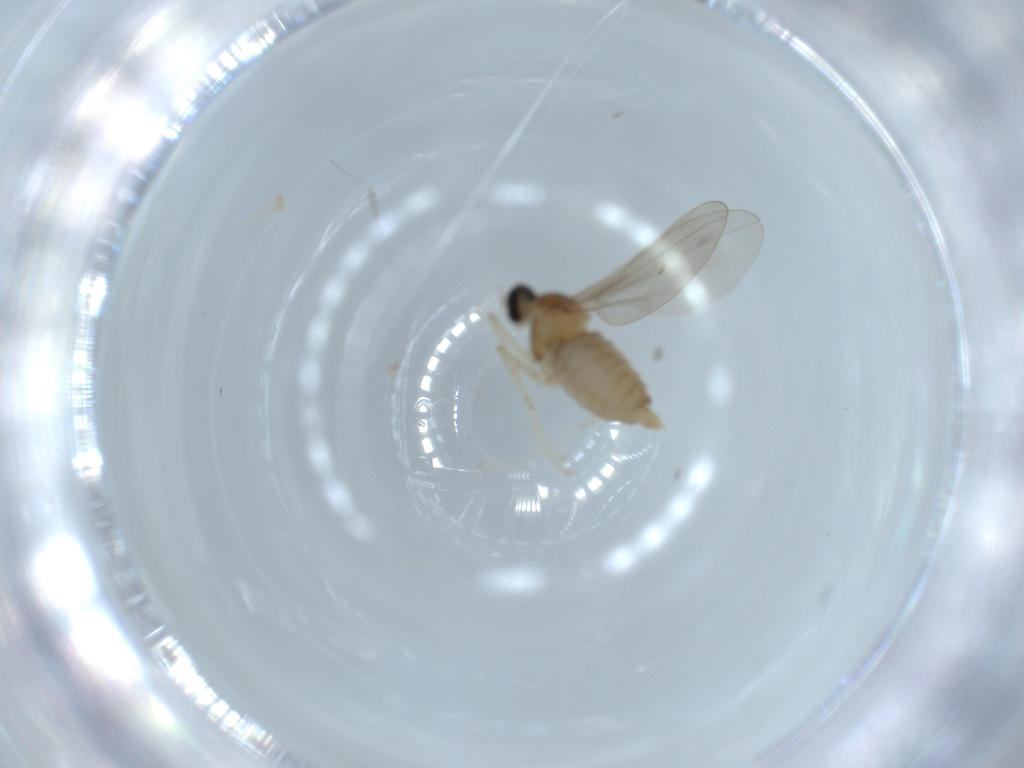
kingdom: Animalia
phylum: Arthropoda
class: Insecta
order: Diptera
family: Cecidomyiidae
